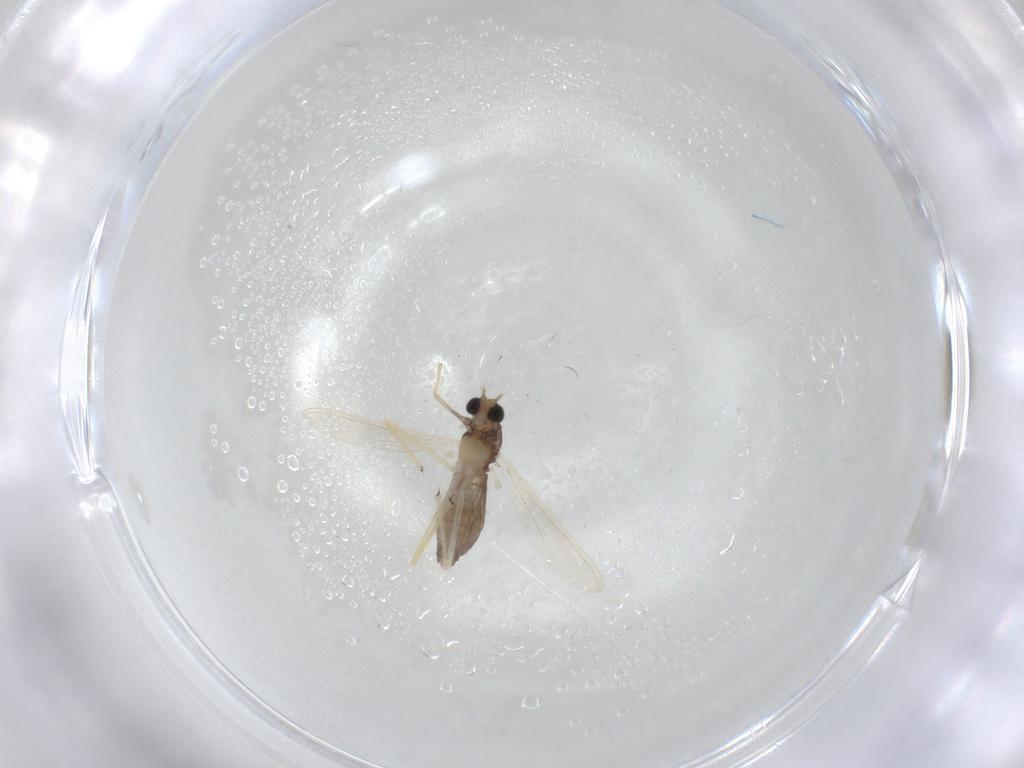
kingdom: Animalia
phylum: Arthropoda
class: Insecta
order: Diptera
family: Chironomidae
